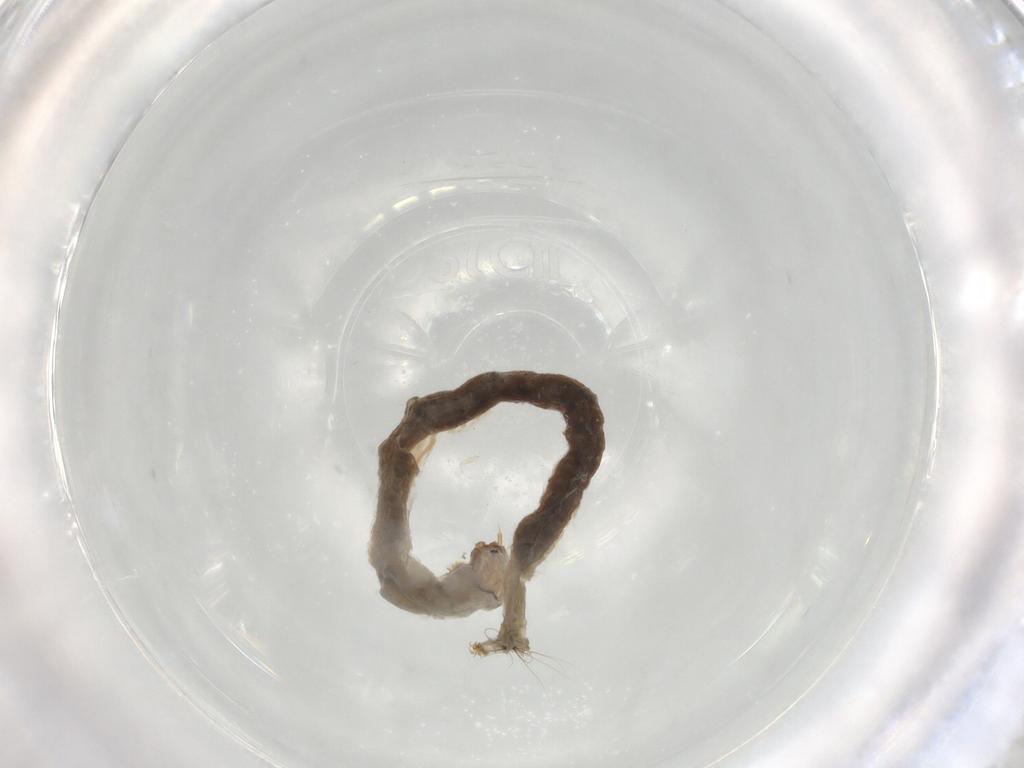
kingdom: Animalia
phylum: Arthropoda
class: Insecta
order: Diptera
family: Chironomidae
